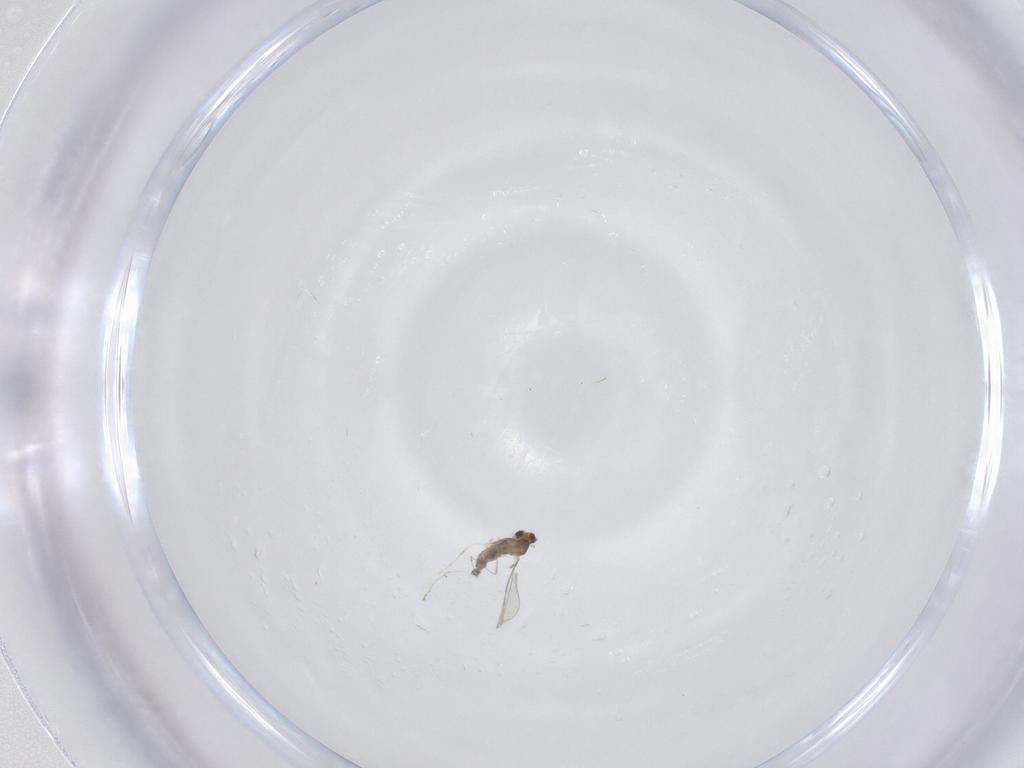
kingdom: Animalia
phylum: Arthropoda
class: Insecta
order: Diptera
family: Cecidomyiidae
